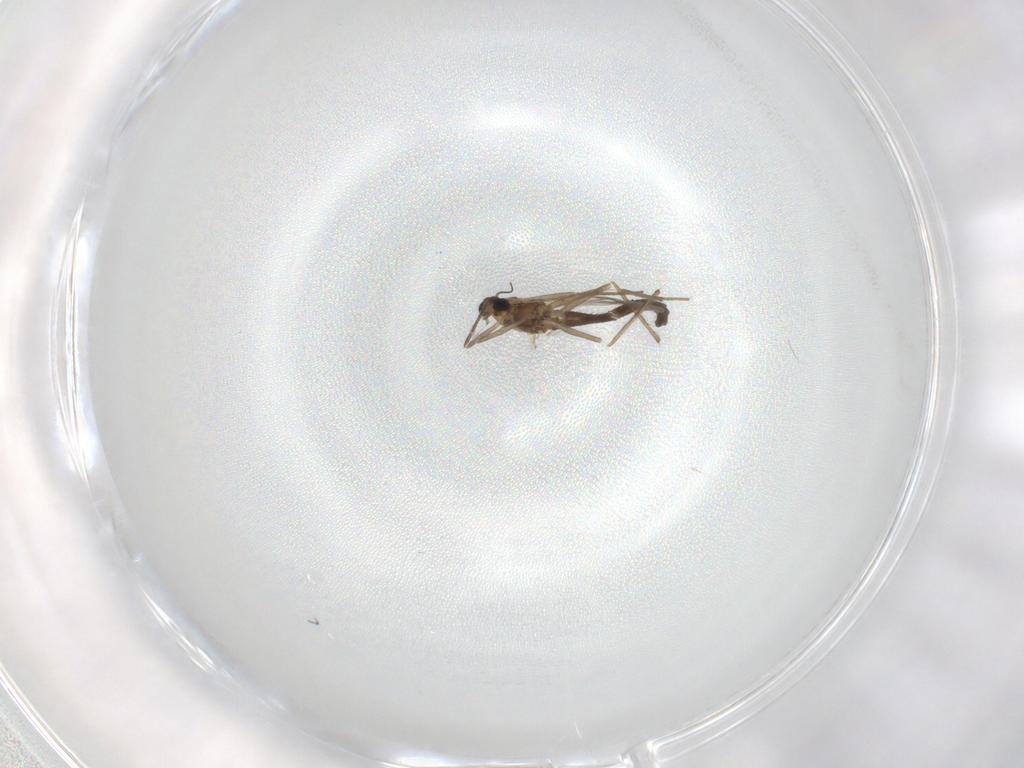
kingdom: Animalia
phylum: Arthropoda
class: Insecta
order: Diptera
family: Chironomidae
